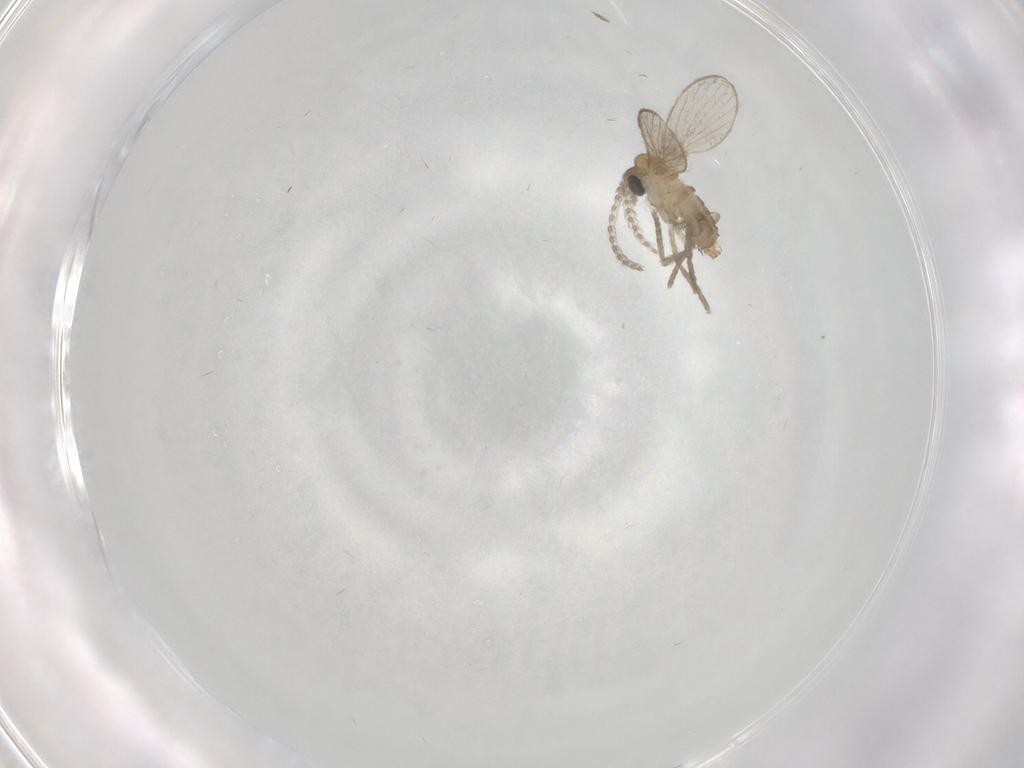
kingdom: Animalia
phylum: Arthropoda
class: Insecta
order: Diptera
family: Psychodidae
